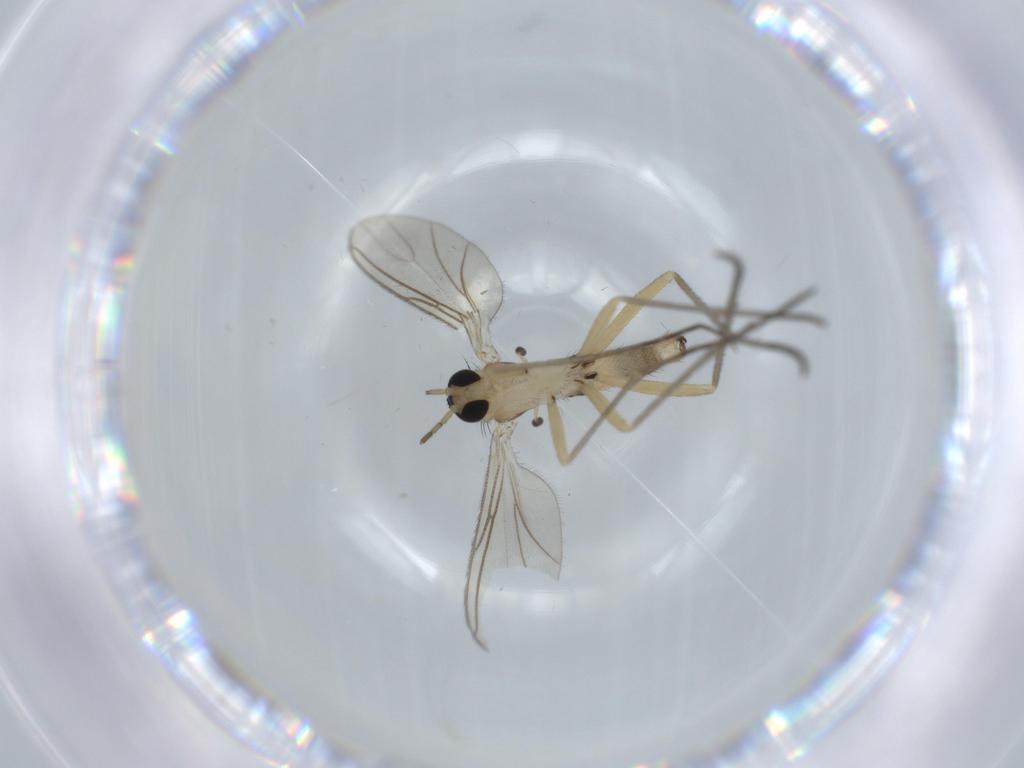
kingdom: Animalia
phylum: Arthropoda
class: Insecta
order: Diptera
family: Sciaridae
